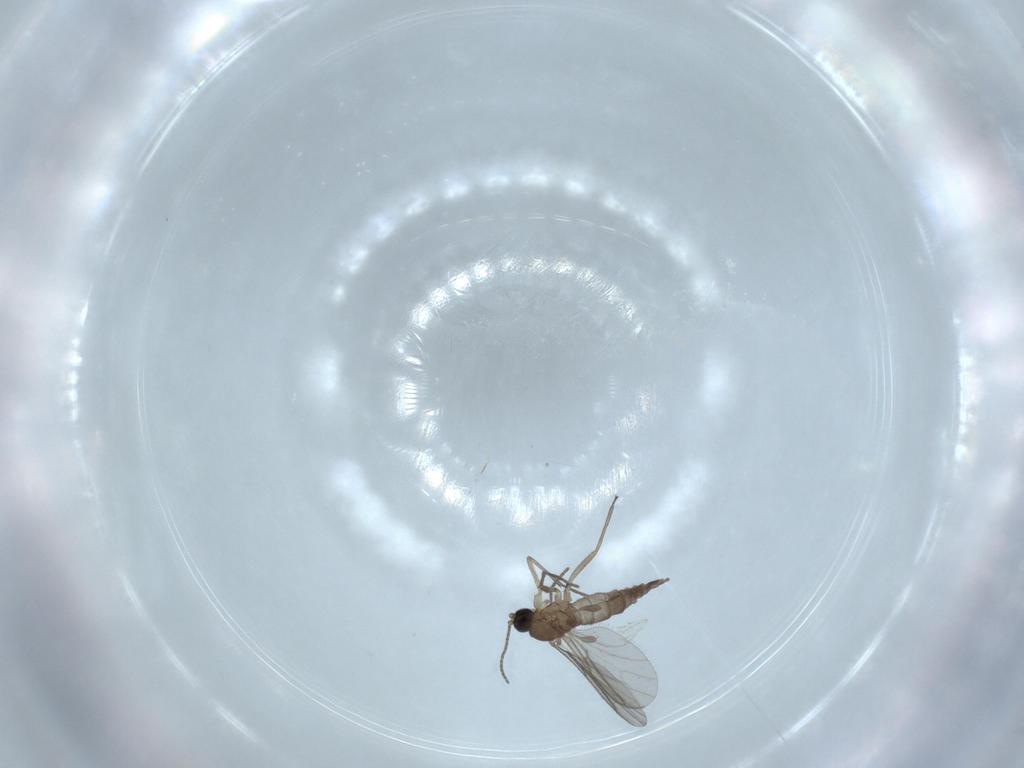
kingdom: Animalia
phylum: Arthropoda
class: Insecta
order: Diptera
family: Sciaridae
